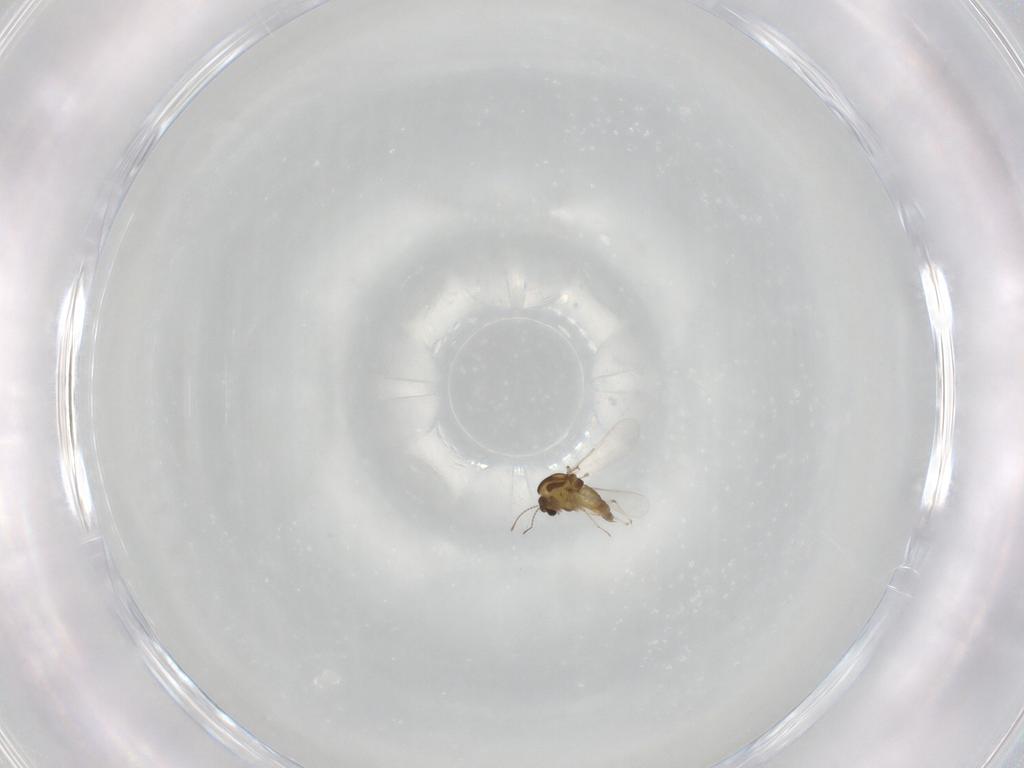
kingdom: Animalia
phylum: Arthropoda
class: Insecta
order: Diptera
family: Chironomidae
